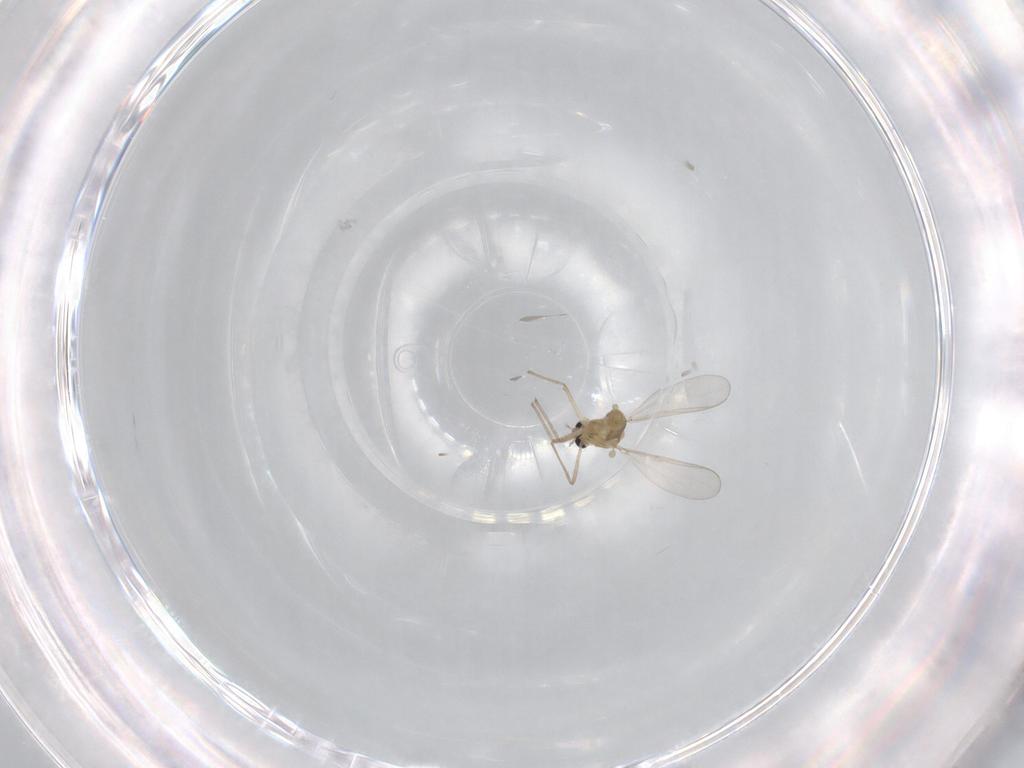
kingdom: Animalia
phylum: Arthropoda
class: Insecta
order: Diptera
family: Chironomidae
